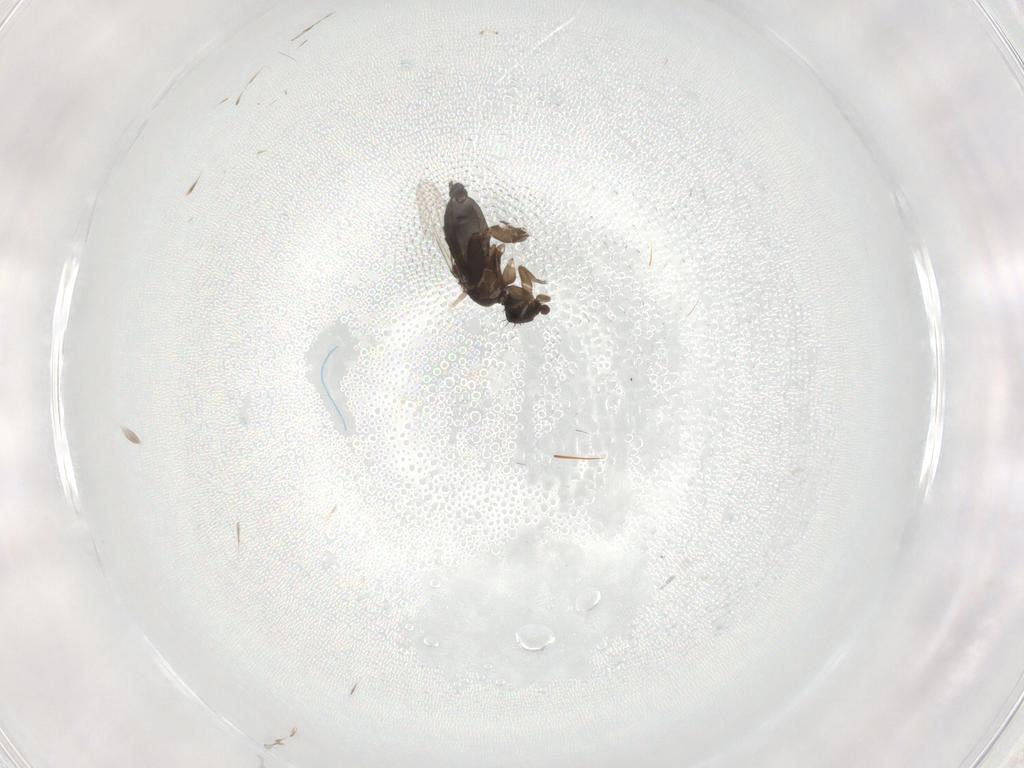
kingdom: Animalia
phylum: Arthropoda
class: Insecta
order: Diptera
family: Phoridae
